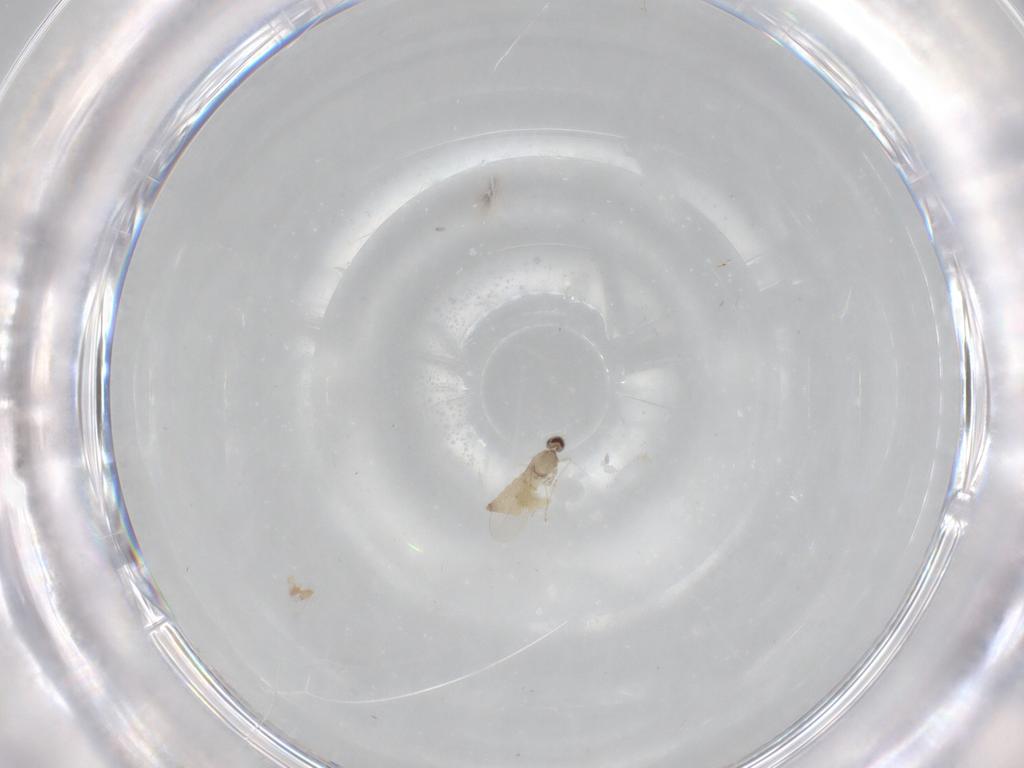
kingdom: Animalia
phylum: Arthropoda
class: Insecta
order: Diptera
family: Cecidomyiidae
